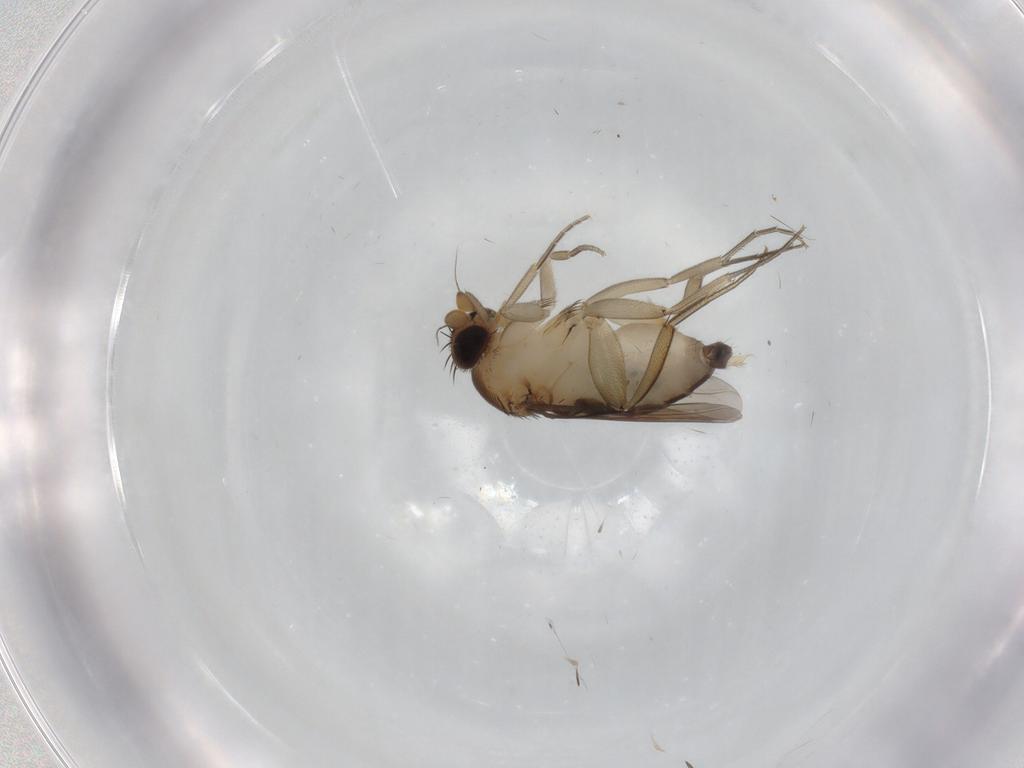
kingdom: Animalia
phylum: Arthropoda
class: Insecta
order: Diptera
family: Phoridae
